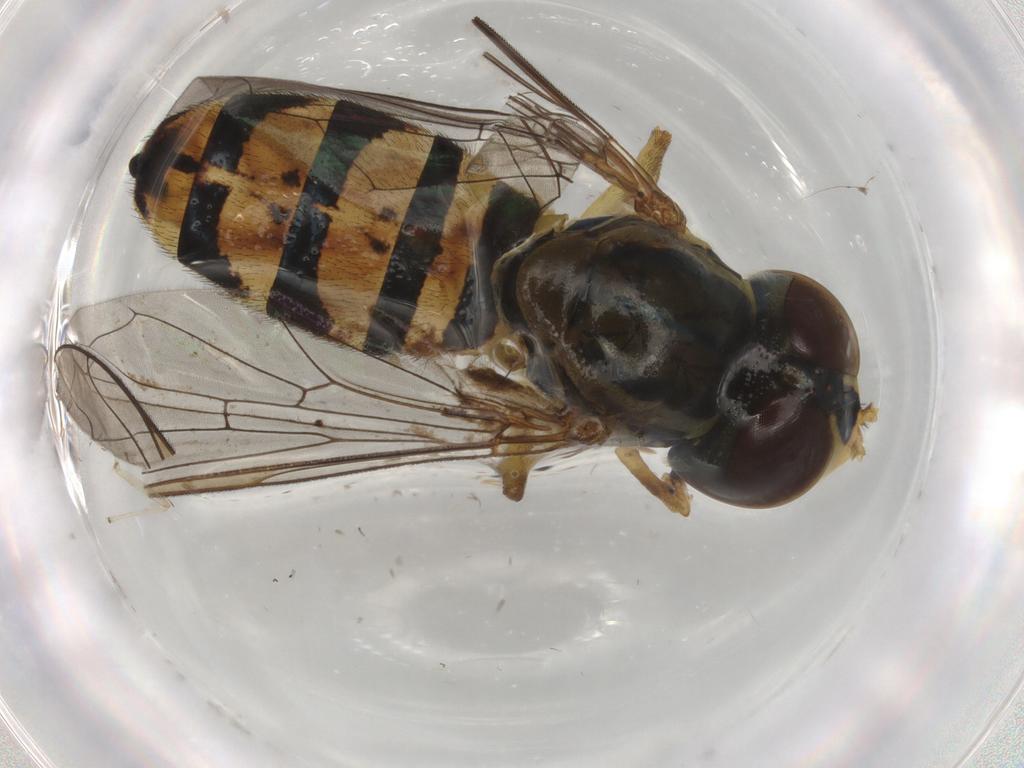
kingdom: Animalia
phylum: Arthropoda
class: Insecta
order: Diptera
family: Syrphidae
